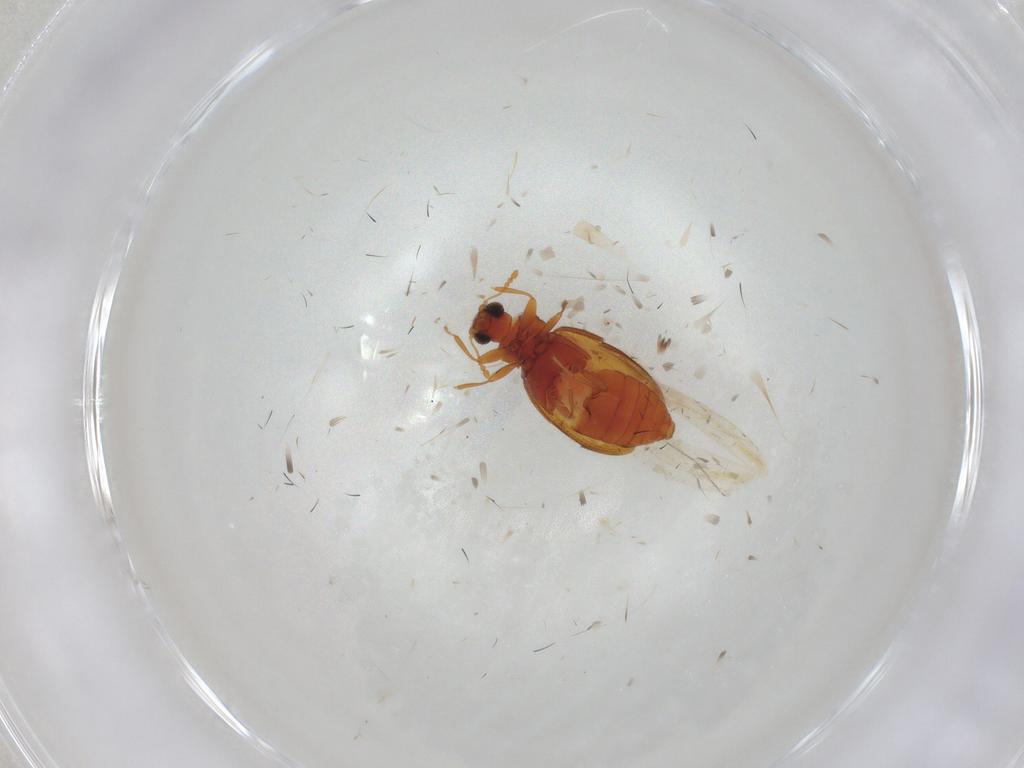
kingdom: Animalia
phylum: Arthropoda
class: Insecta
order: Coleoptera
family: Latridiidae
